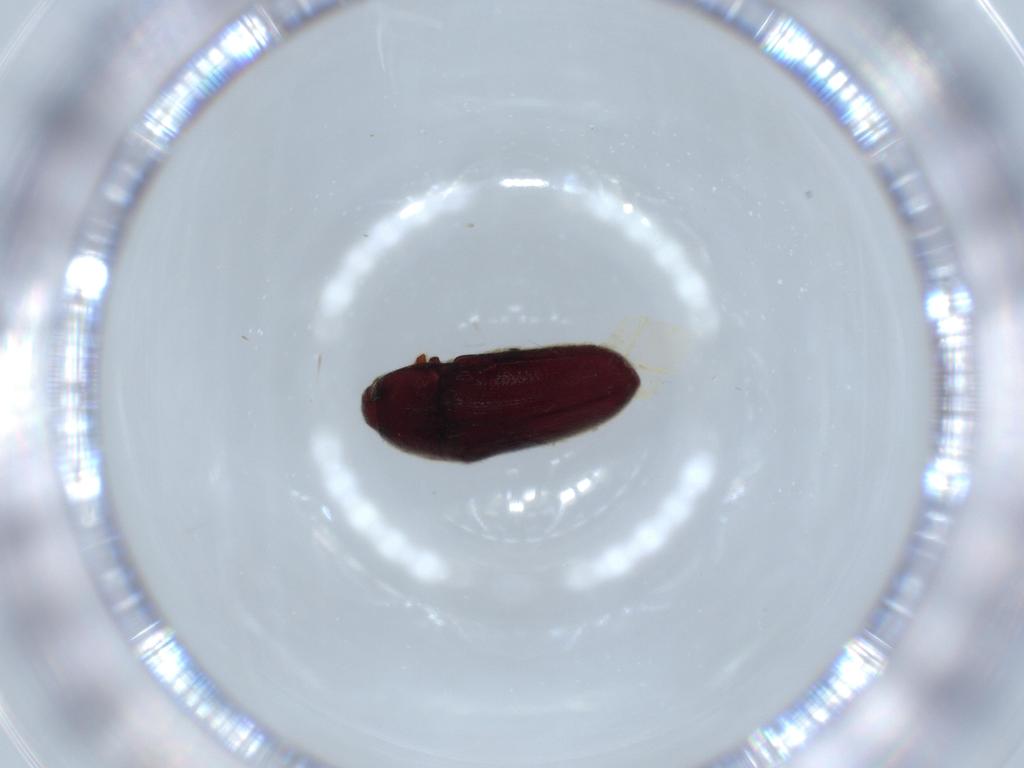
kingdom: Animalia
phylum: Arthropoda
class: Insecta
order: Coleoptera
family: Throscidae
